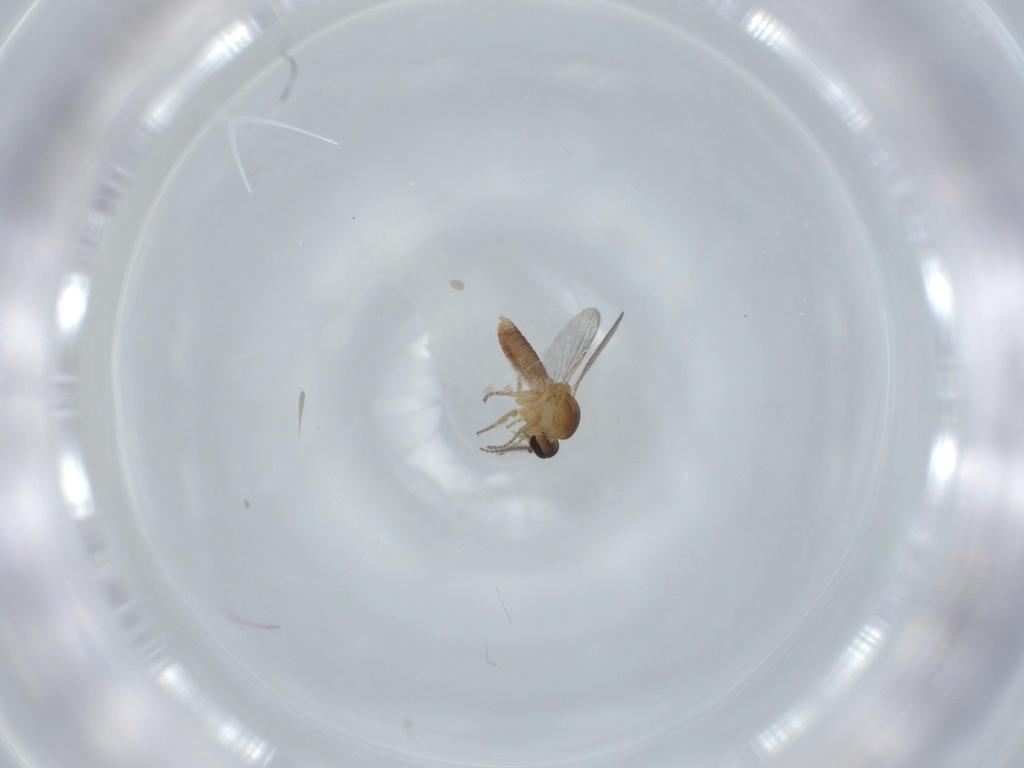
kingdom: Animalia
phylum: Arthropoda
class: Insecta
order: Diptera
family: Ceratopogonidae
